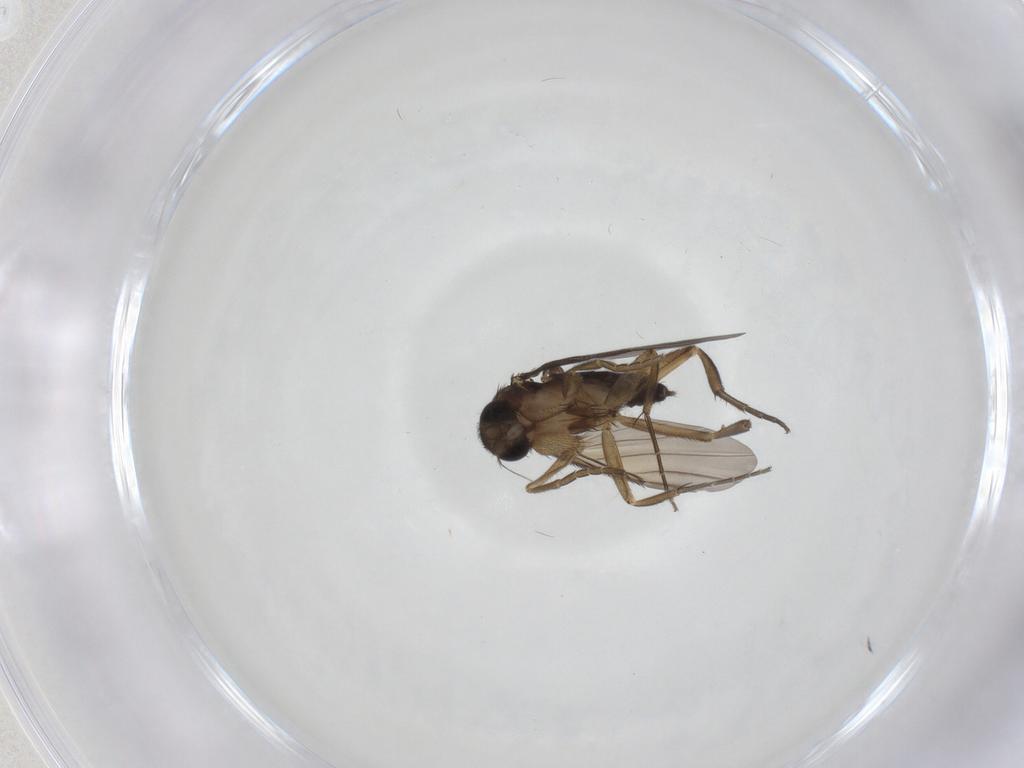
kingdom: Animalia
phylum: Arthropoda
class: Insecta
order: Diptera
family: Phoridae
